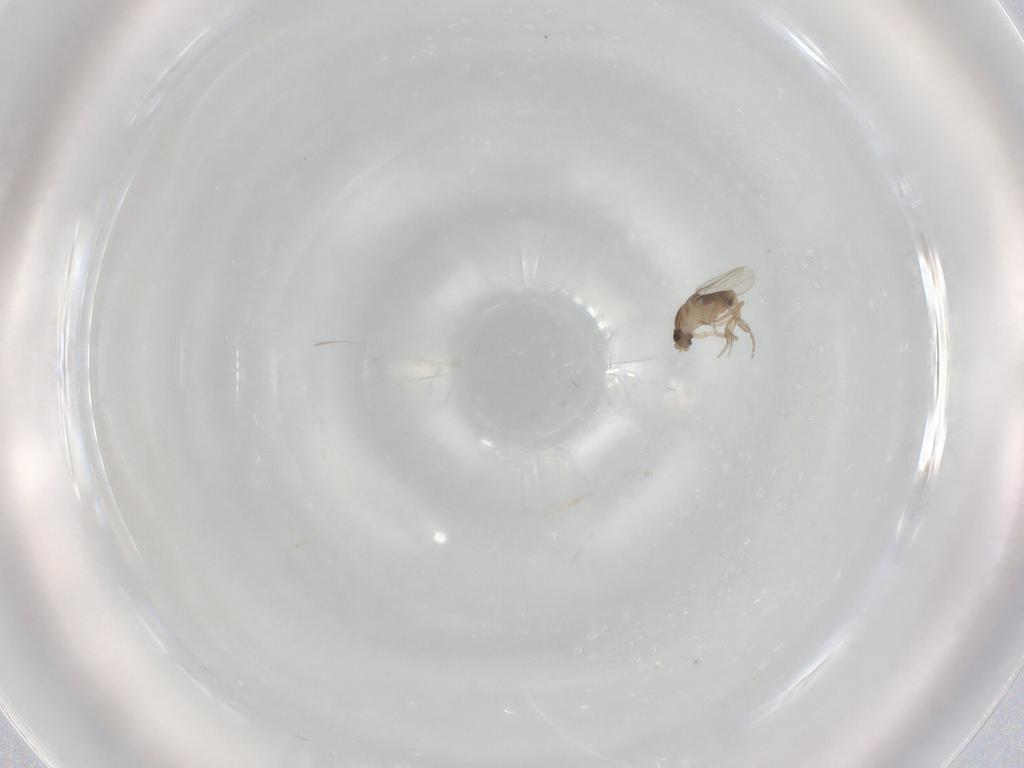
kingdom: Animalia
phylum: Arthropoda
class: Insecta
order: Diptera
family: Phoridae
